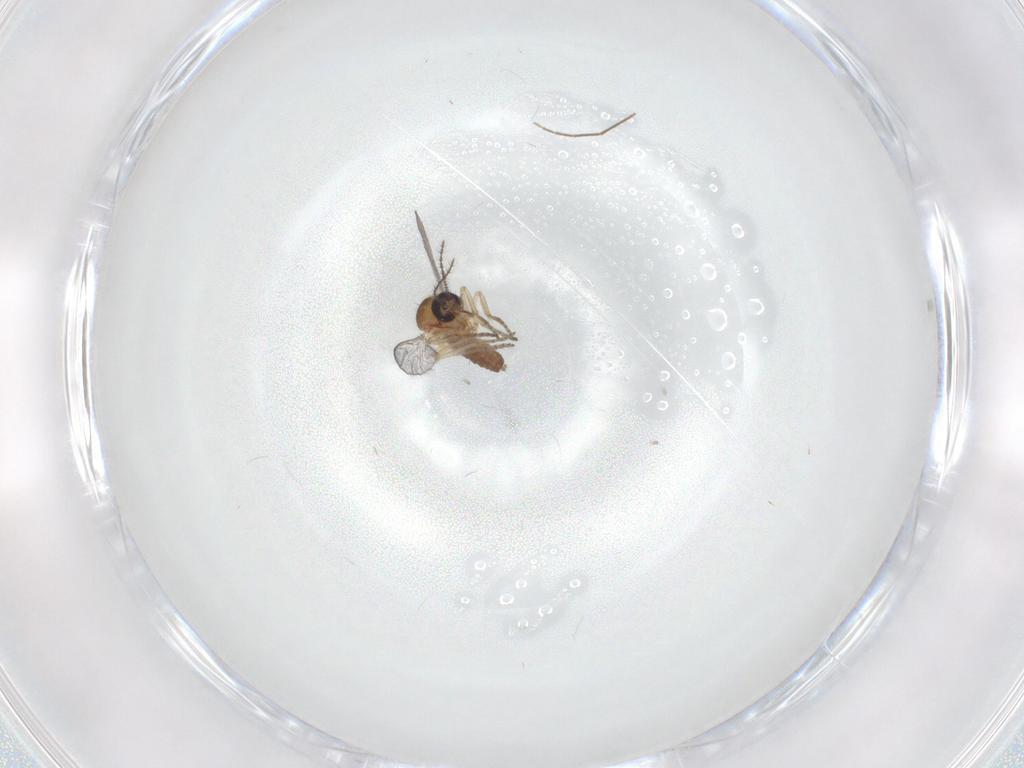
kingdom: Animalia
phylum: Arthropoda
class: Insecta
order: Diptera
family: Ceratopogonidae
